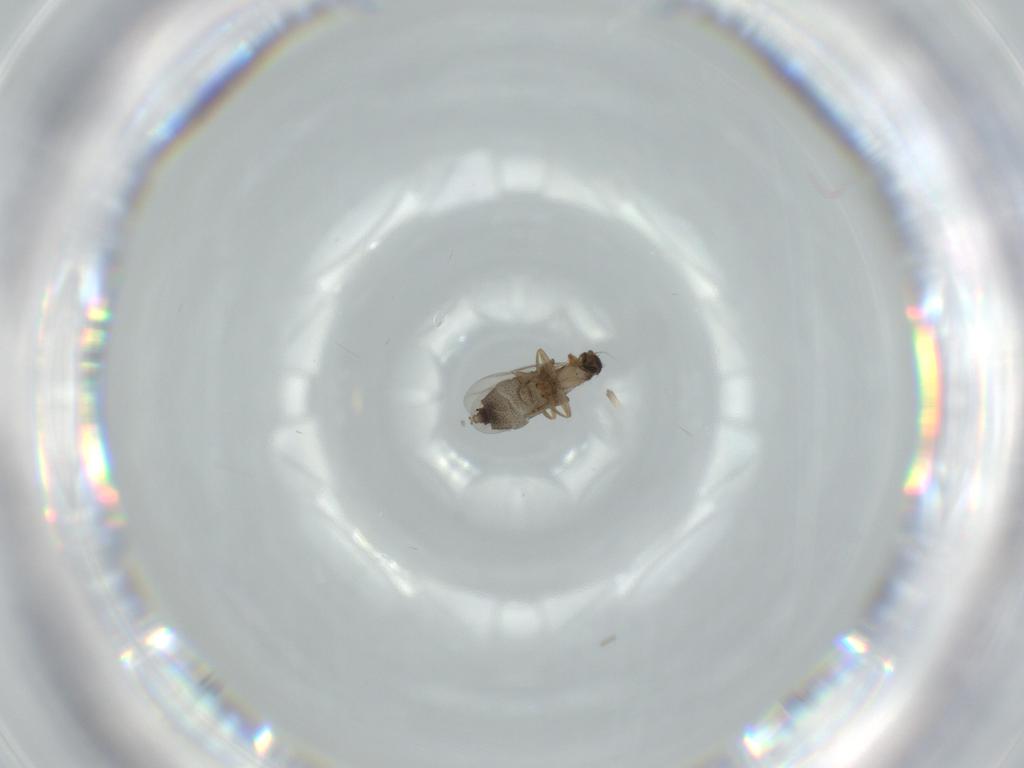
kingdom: Animalia
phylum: Arthropoda
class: Insecta
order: Diptera
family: Phoridae
